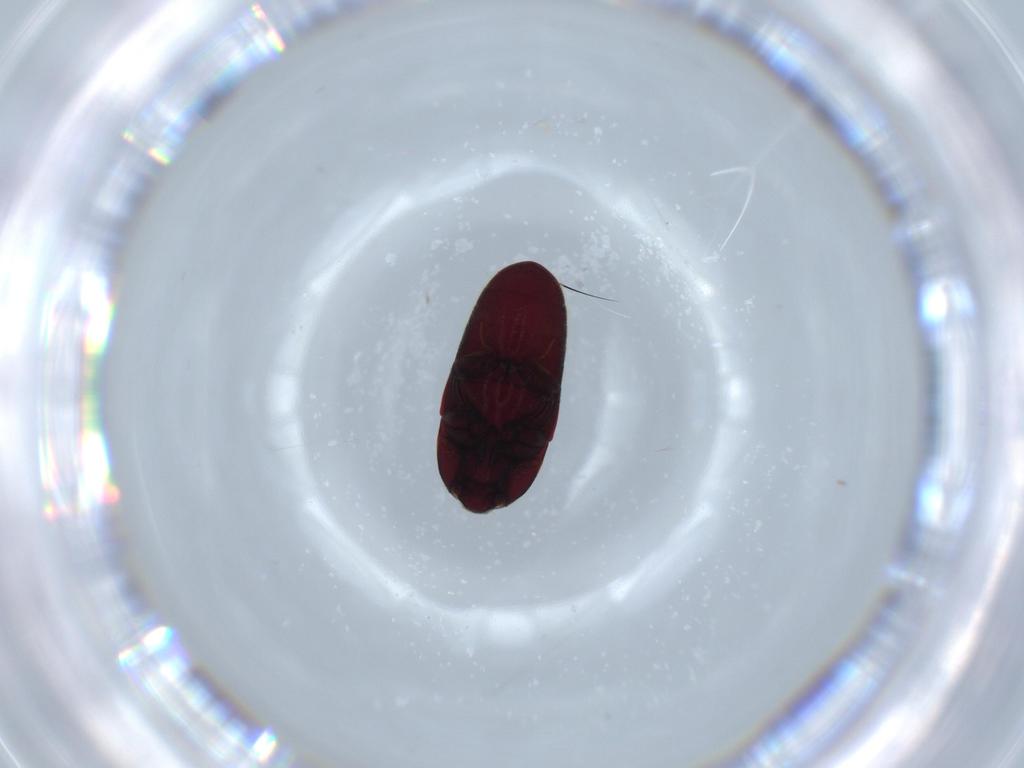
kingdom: Animalia
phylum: Arthropoda
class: Insecta
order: Coleoptera
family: Throscidae
